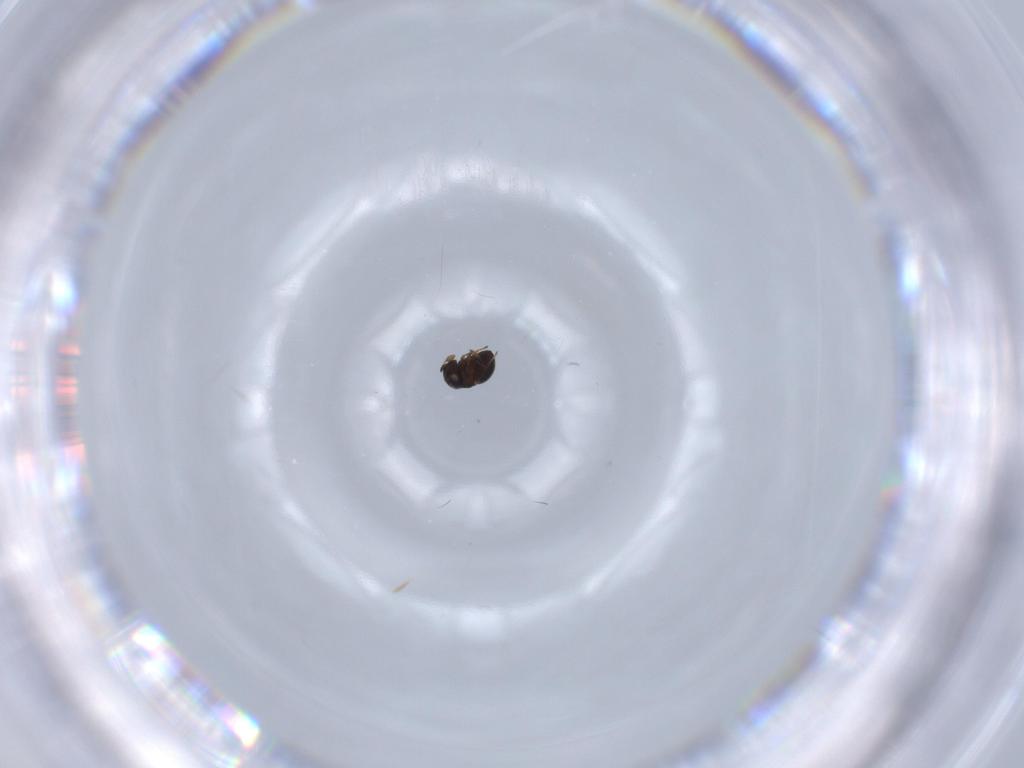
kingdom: Animalia
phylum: Arthropoda
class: Insecta
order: Hymenoptera
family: Scelionidae
